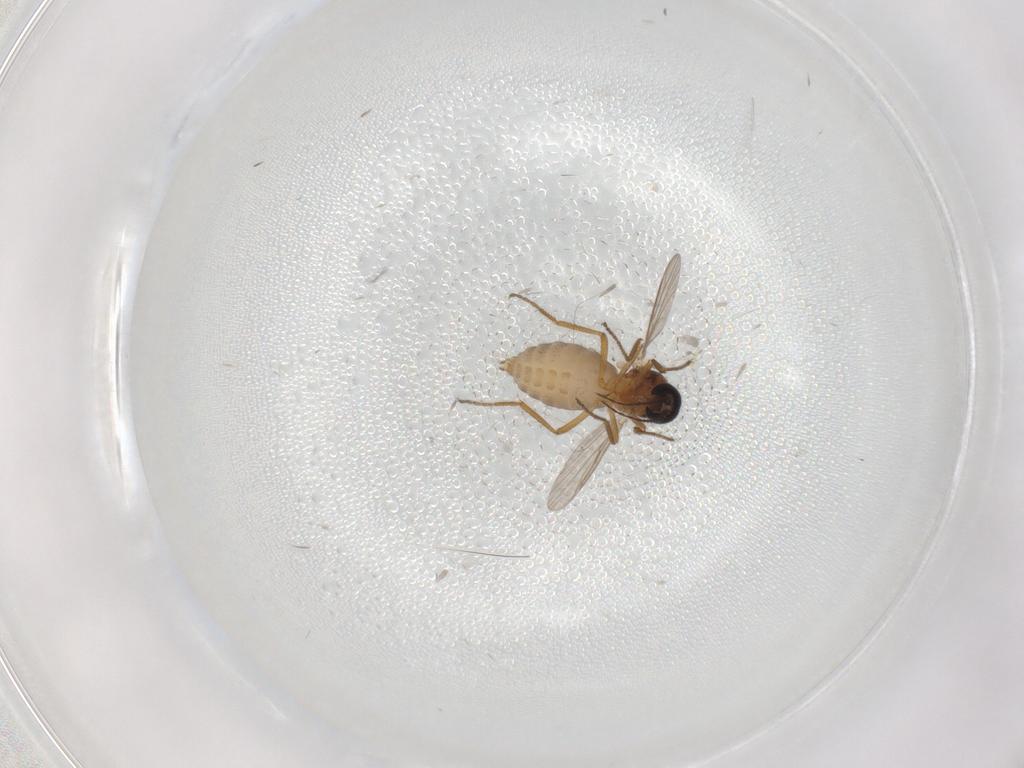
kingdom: Animalia
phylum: Arthropoda
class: Insecta
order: Diptera
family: Ceratopogonidae
